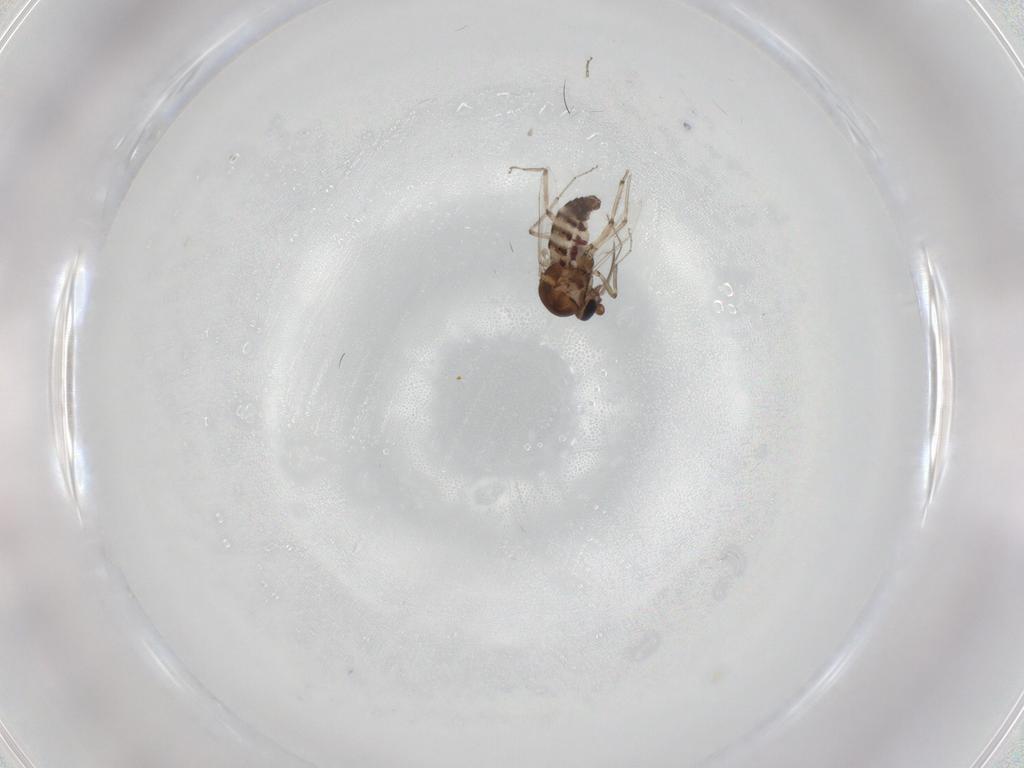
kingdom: Animalia
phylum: Arthropoda
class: Insecta
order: Diptera
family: Ceratopogonidae
